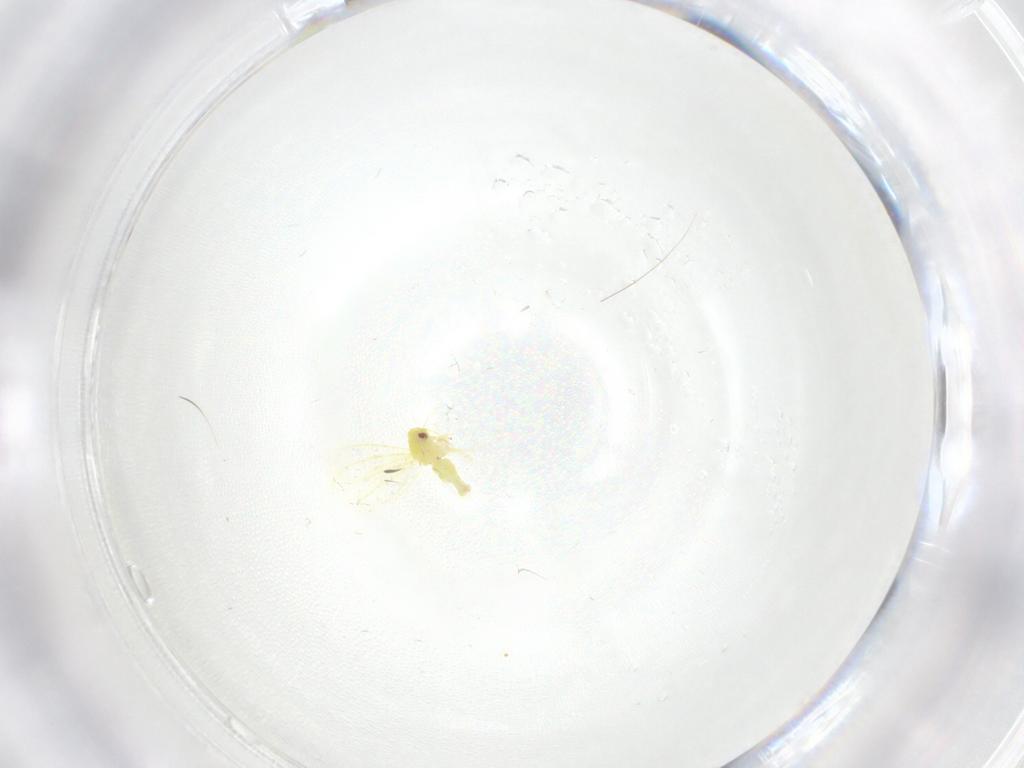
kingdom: Animalia
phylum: Arthropoda
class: Insecta
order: Hemiptera
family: Aleyrodidae
